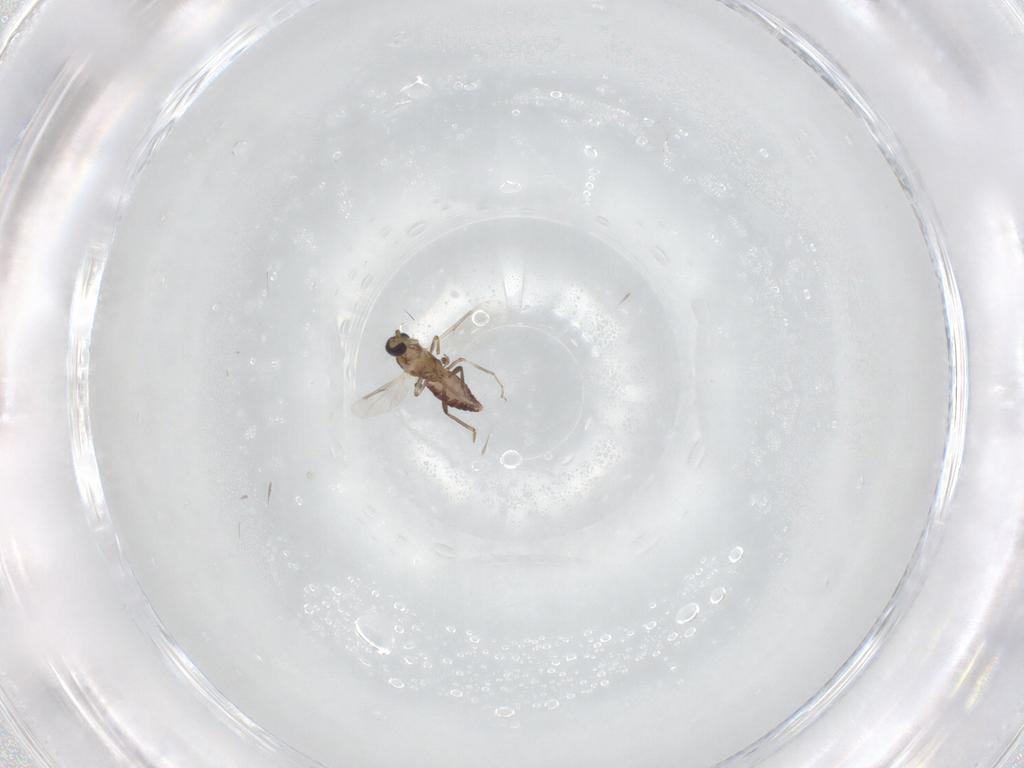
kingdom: Animalia
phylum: Arthropoda
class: Insecta
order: Diptera
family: Ceratopogonidae
